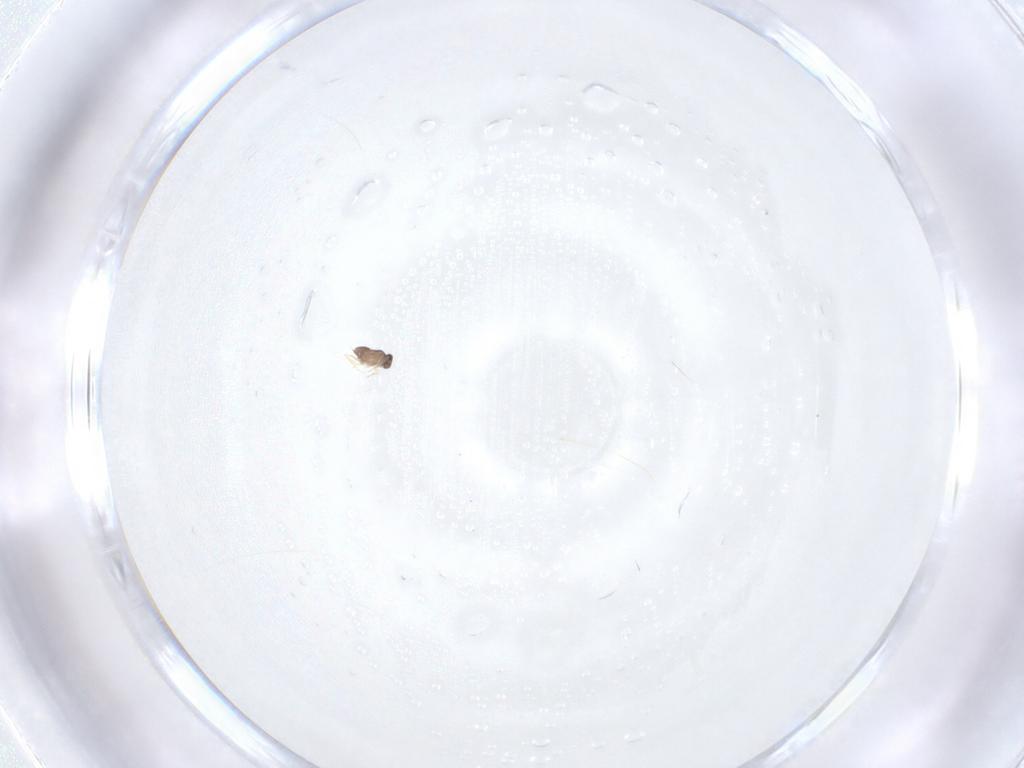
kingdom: Animalia
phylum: Arthropoda
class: Insecta
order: Hymenoptera
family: Mymaridae
